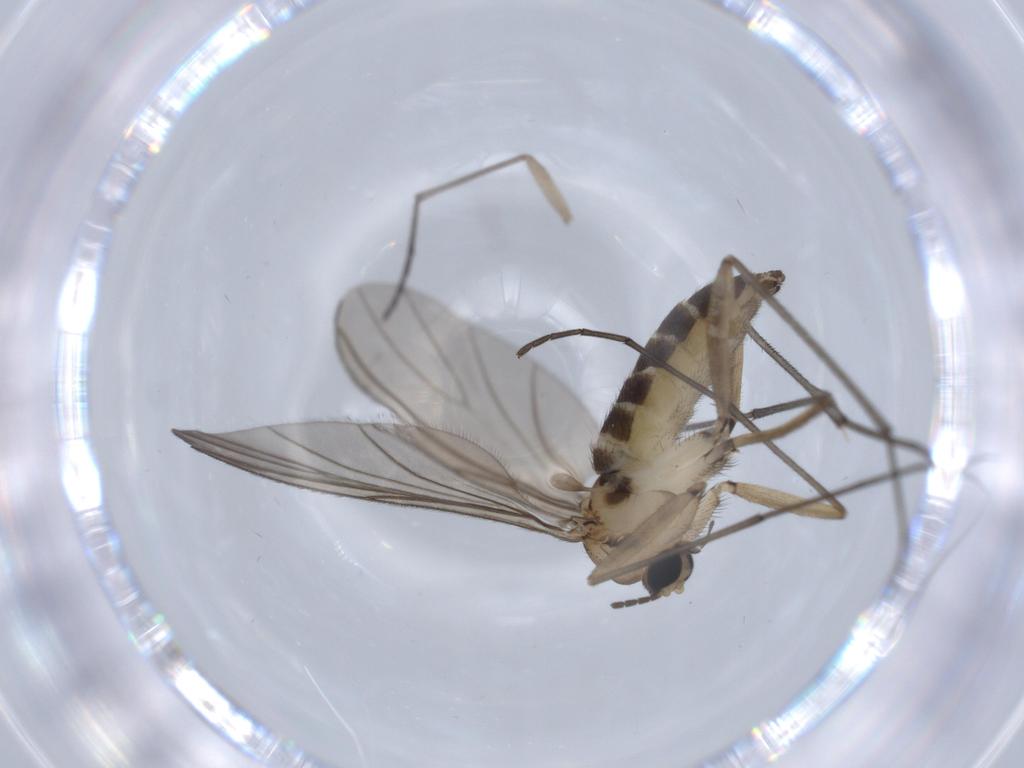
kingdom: Animalia
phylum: Arthropoda
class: Insecta
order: Diptera
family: Sciaridae
